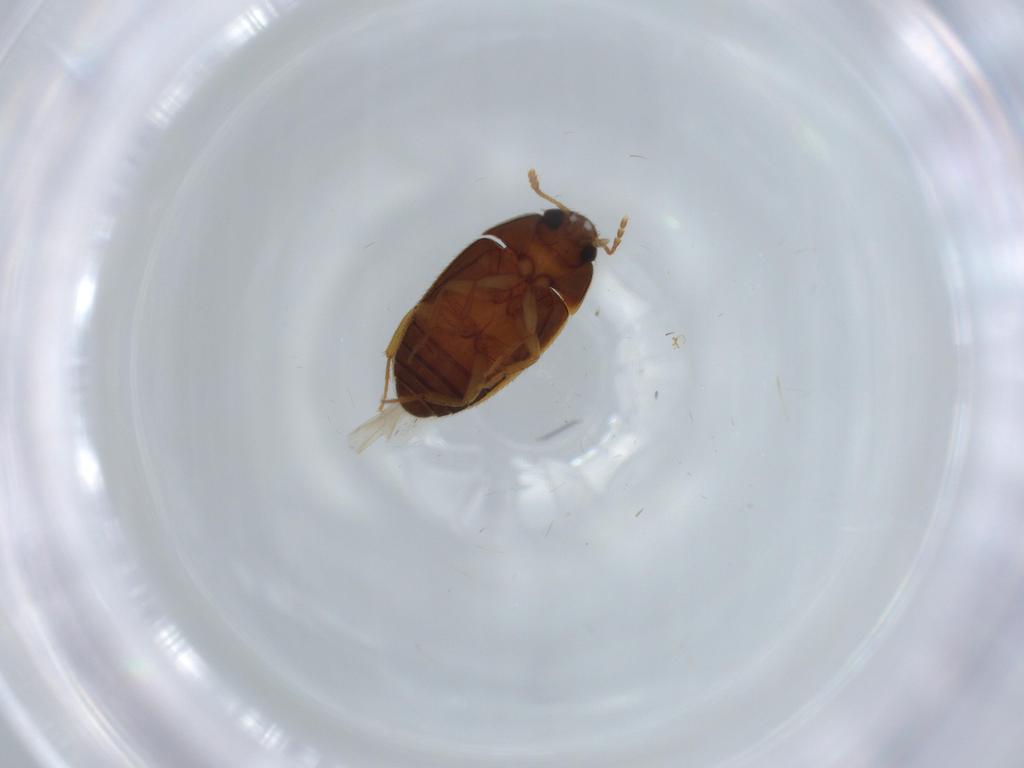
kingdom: Animalia
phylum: Arthropoda
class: Insecta
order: Coleoptera
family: Mycetophagidae
